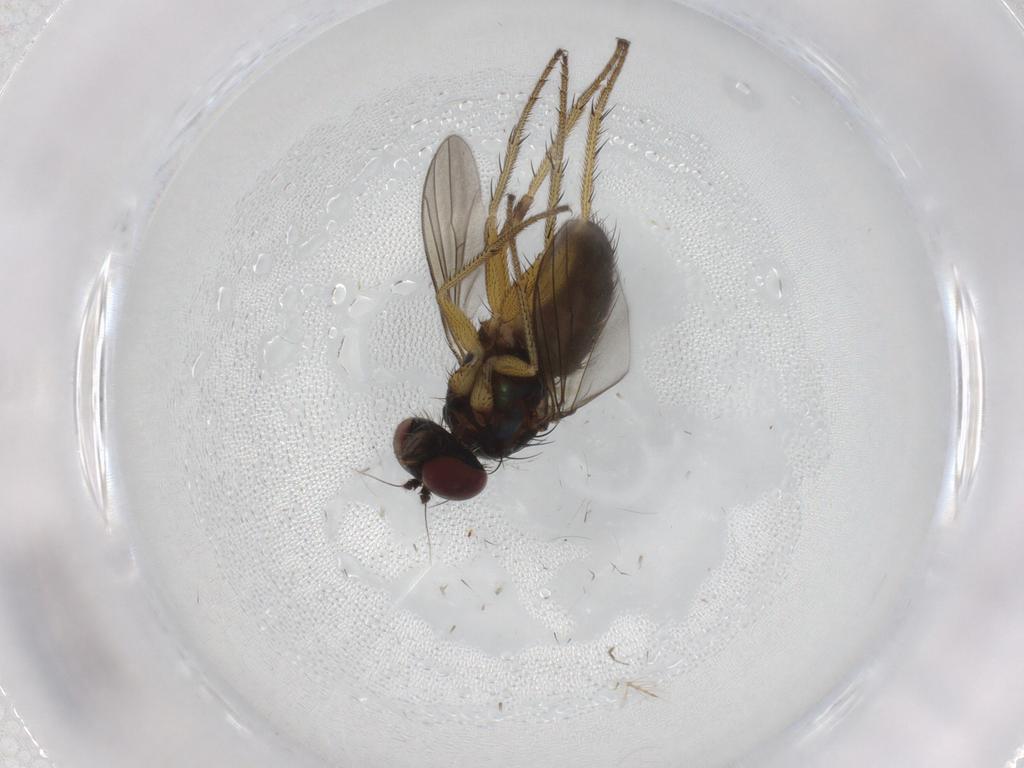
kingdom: Animalia
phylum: Arthropoda
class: Insecta
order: Diptera
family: Dolichopodidae
